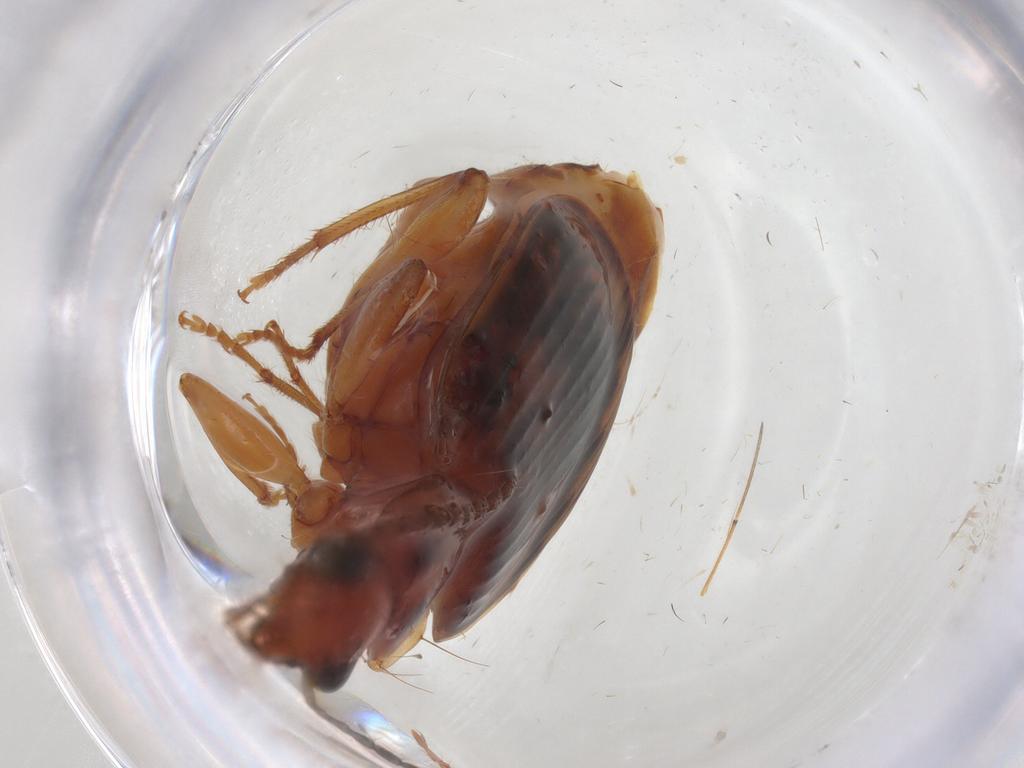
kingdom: Animalia
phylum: Arthropoda
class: Insecta
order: Coleoptera
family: Carabidae
